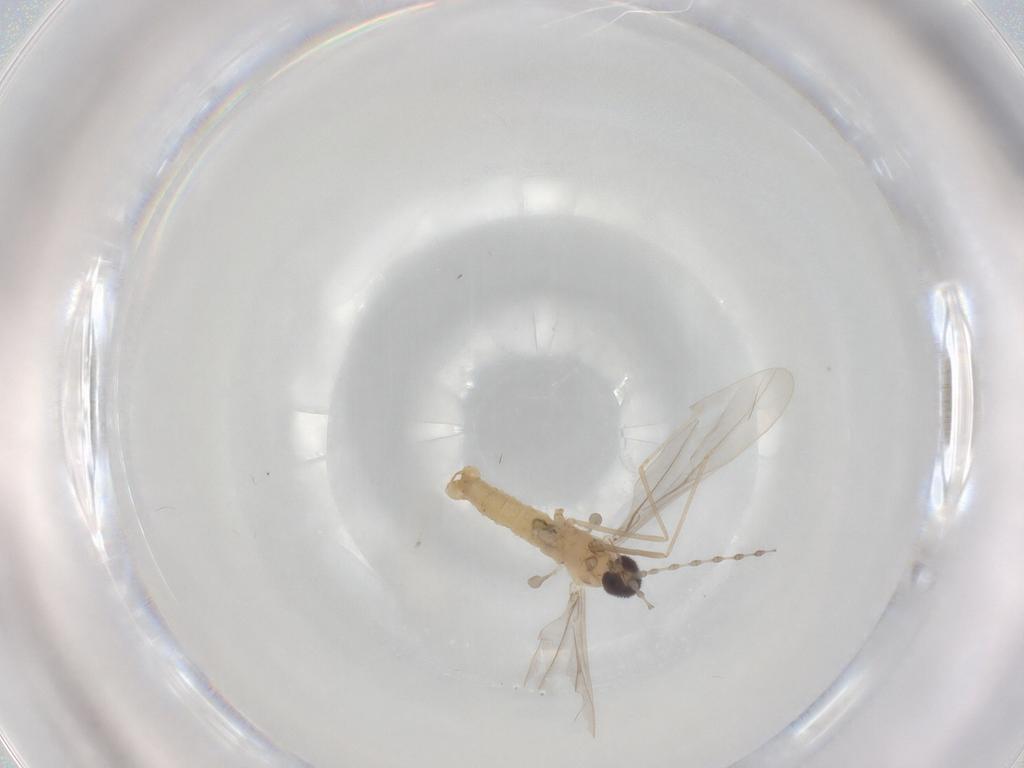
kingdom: Animalia
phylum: Arthropoda
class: Insecta
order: Diptera
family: Cecidomyiidae
